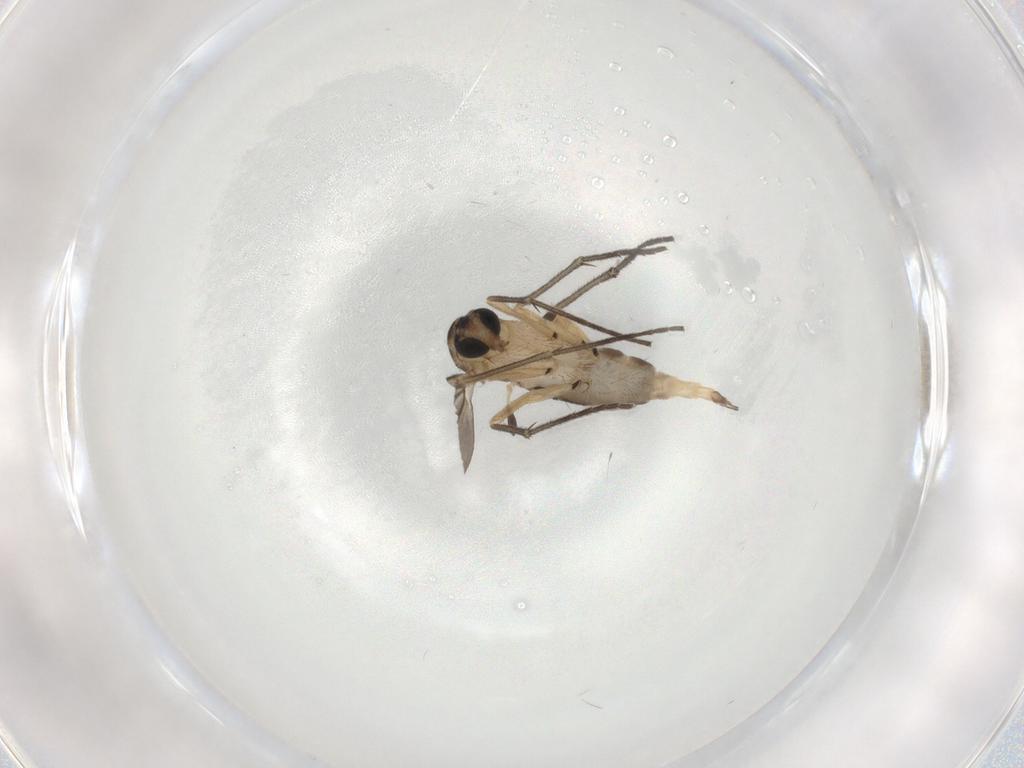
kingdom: Animalia
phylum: Arthropoda
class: Insecta
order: Diptera
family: Sciaridae
